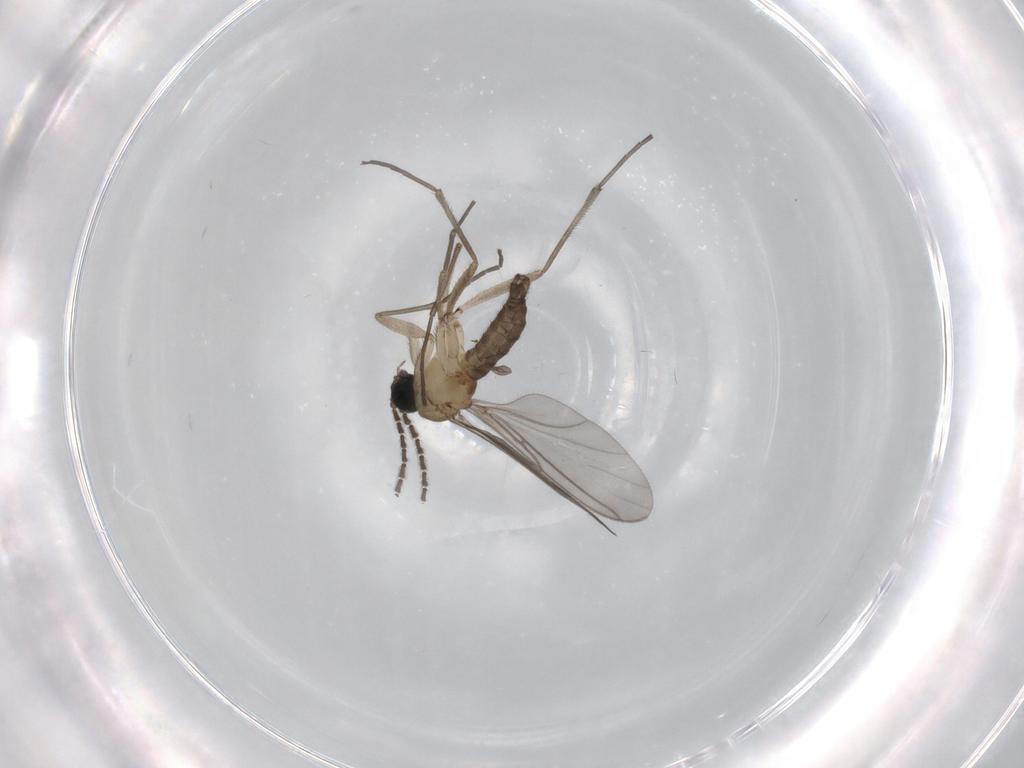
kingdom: Animalia
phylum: Arthropoda
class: Insecta
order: Diptera
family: Sciaridae
